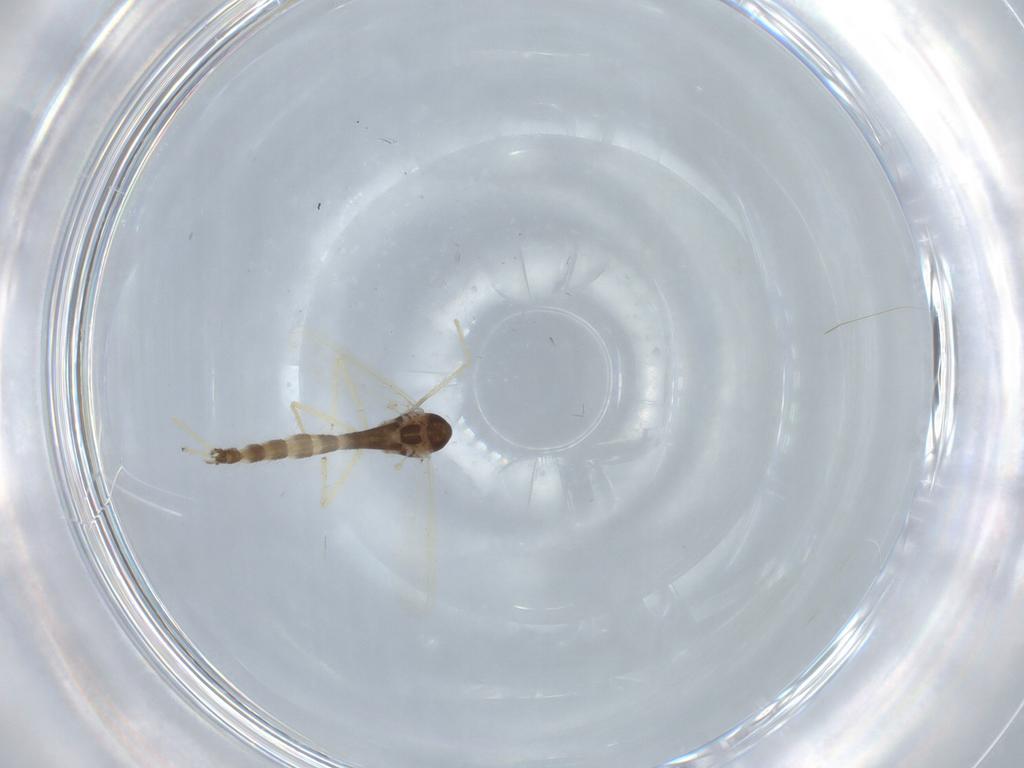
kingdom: Animalia
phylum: Arthropoda
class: Insecta
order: Diptera
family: Chironomidae
